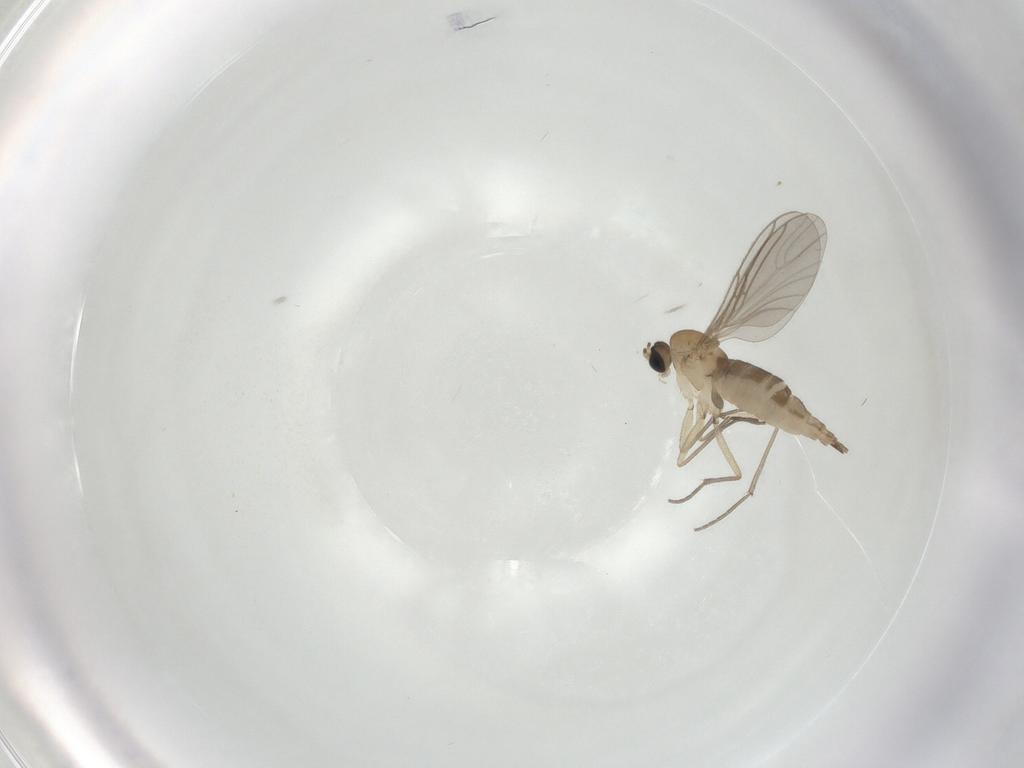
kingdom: Animalia
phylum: Arthropoda
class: Insecta
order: Diptera
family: Sciaridae
